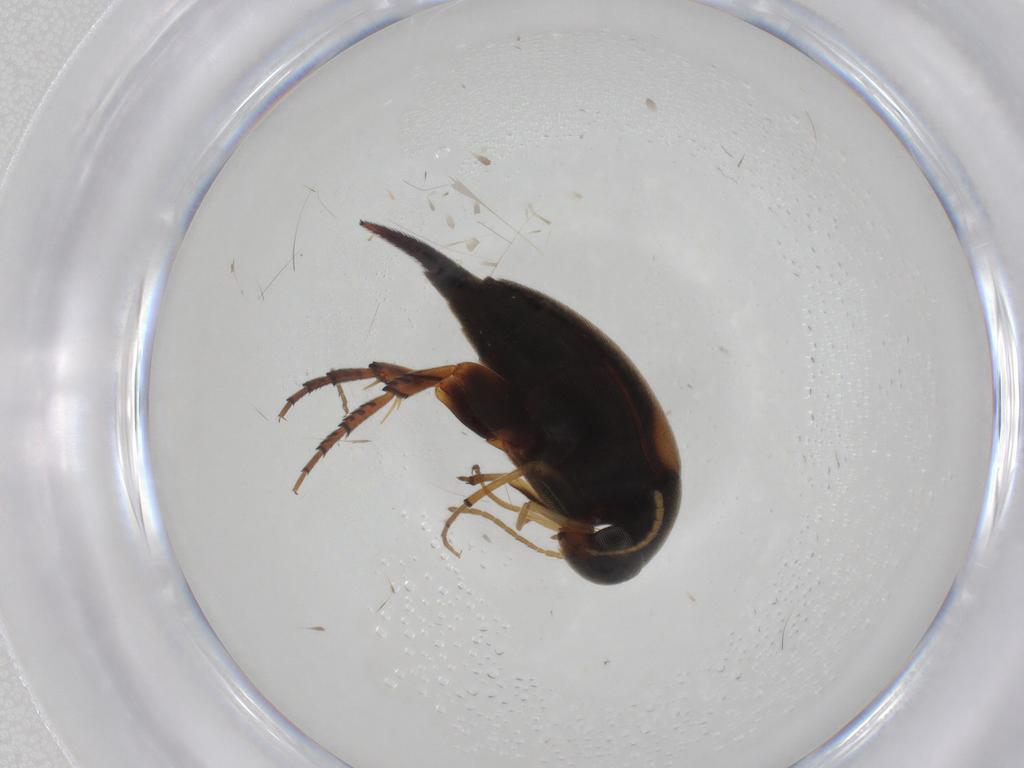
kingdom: Animalia
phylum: Arthropoda
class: Insecta
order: Coleoptera
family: Mordellidae
